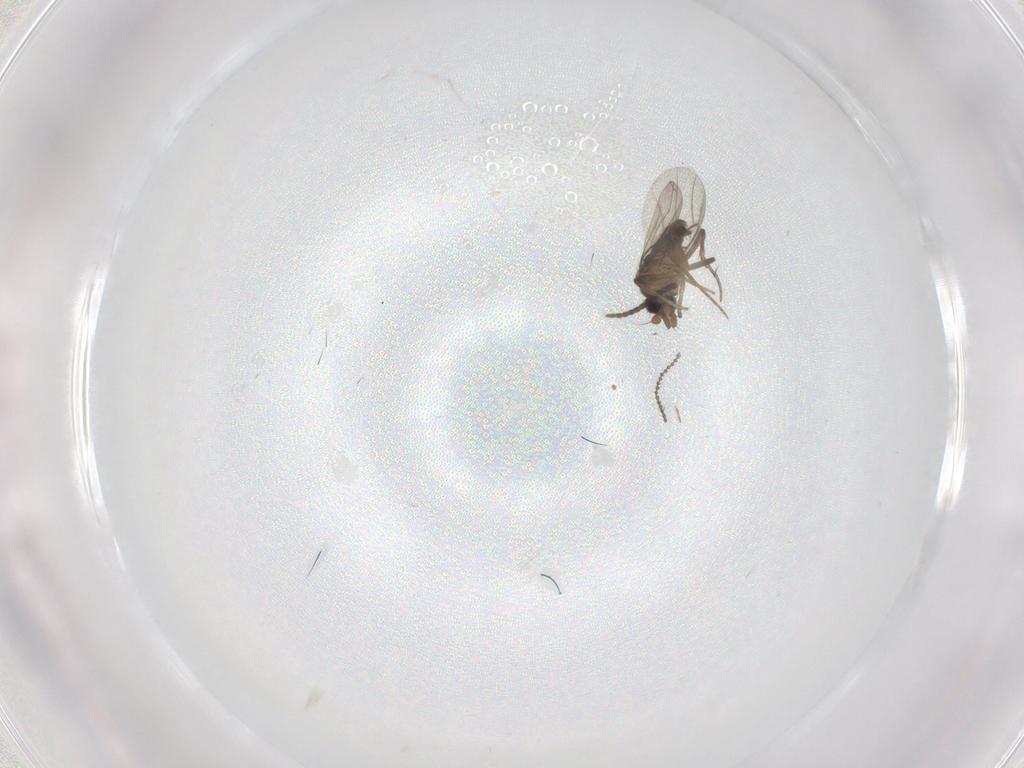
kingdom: Animalia
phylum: Arthropoda
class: Insecta
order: Diptera
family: Cecidomyiidae
